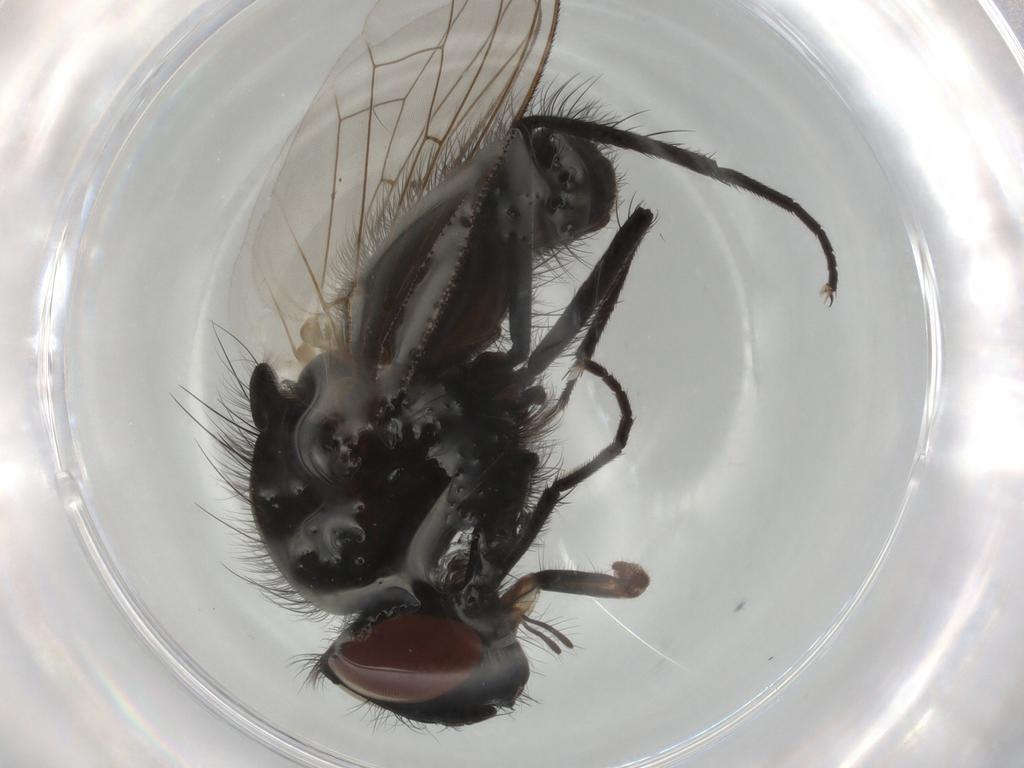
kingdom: Animalia
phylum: Arthropoda
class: Insecta
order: Diptera
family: Anthomyiidae
